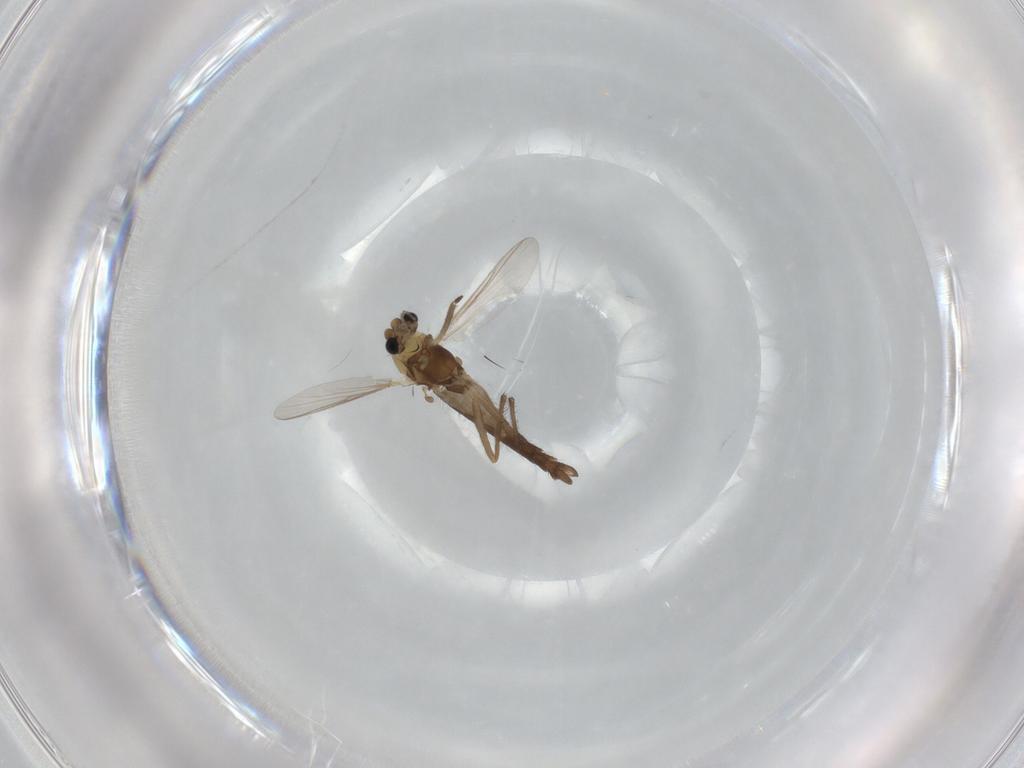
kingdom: Animalia
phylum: Arthropoda
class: Insecta
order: Diptera
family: Chironomidae
